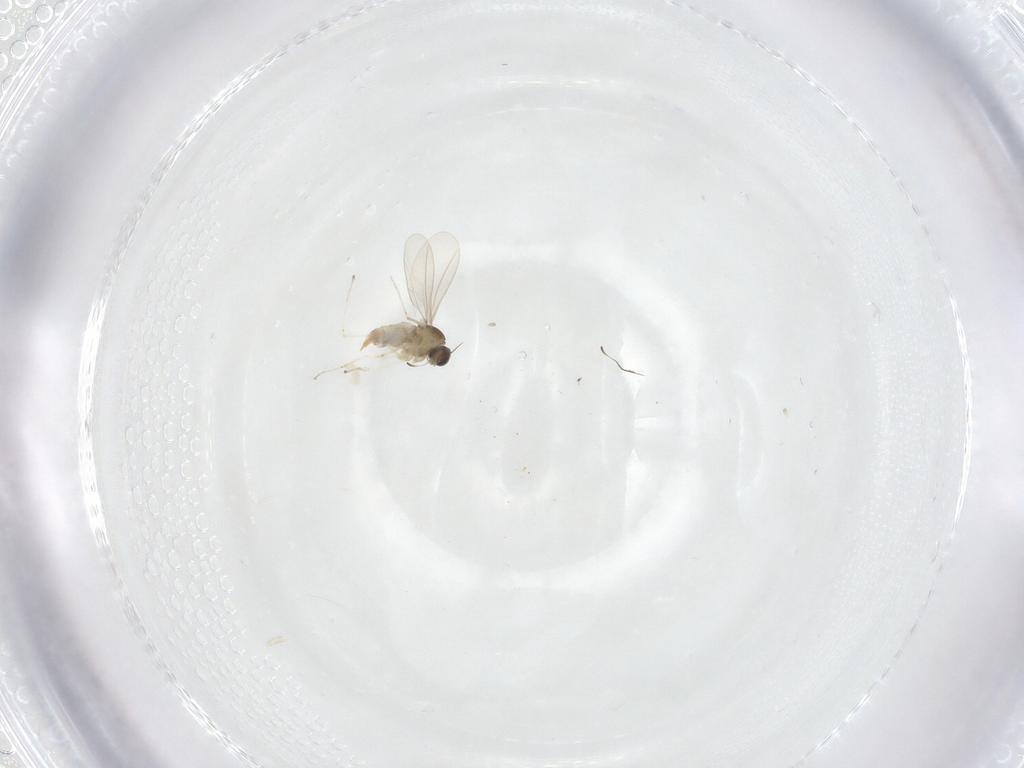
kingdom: Animalia
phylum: Arthropoda
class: Insecta
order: Diptera
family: Cecidomyiidae
